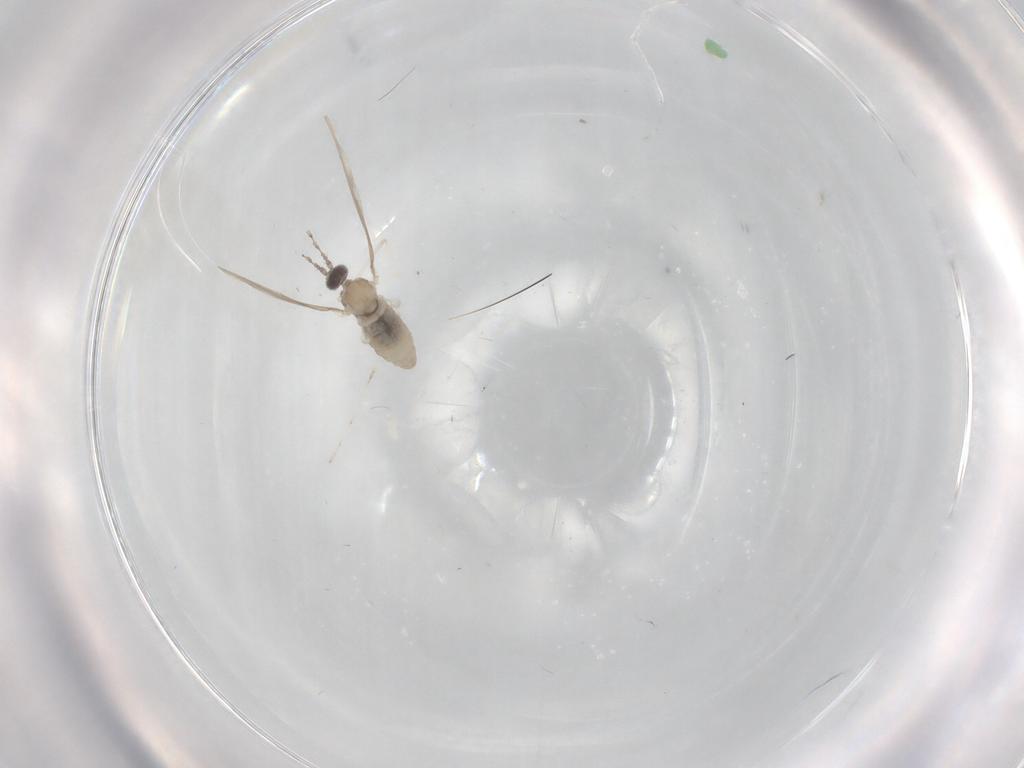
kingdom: Animalia
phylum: Arthropoda
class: Insecta
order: Diptera
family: Cecidomyiidae
